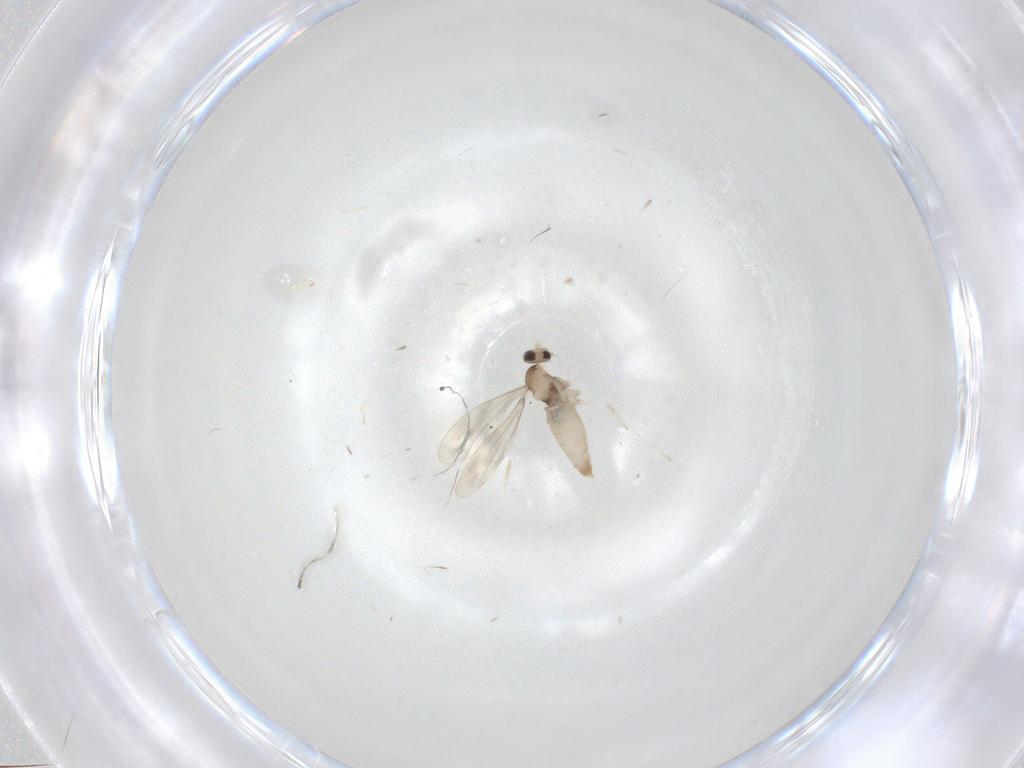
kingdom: Animalia
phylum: Arthropoda
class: Insecta
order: Diptera
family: Cecidomyiidae
